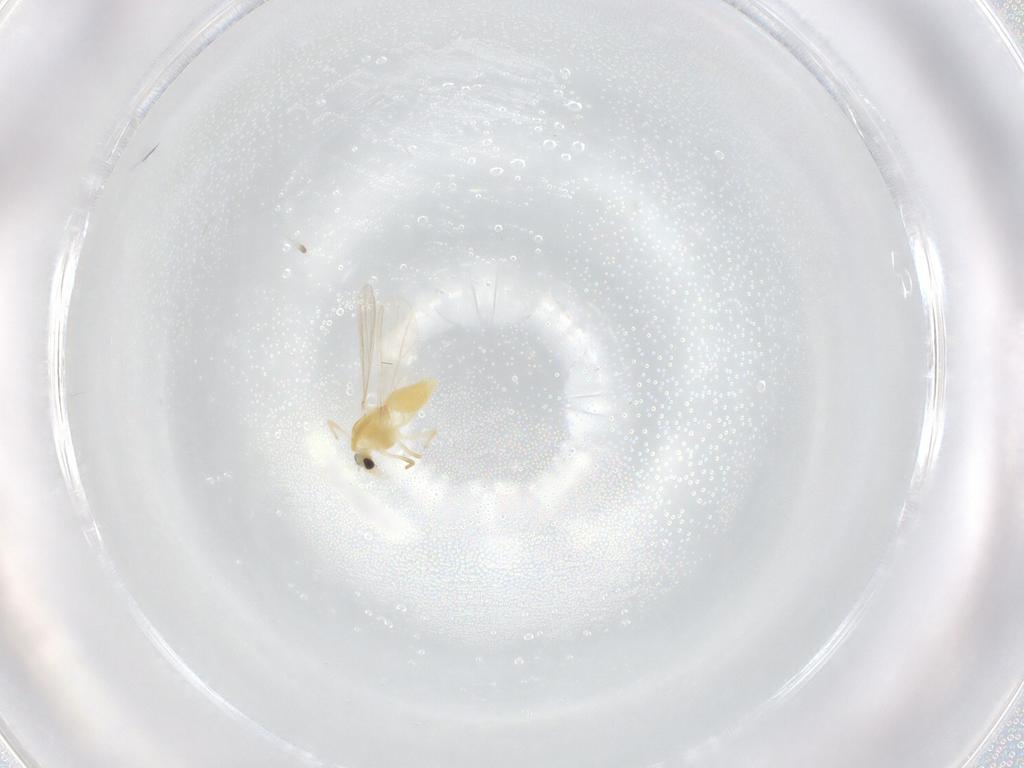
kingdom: Animalia
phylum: Arthropoda
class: Insecta
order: Diptera
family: Chironomidae
